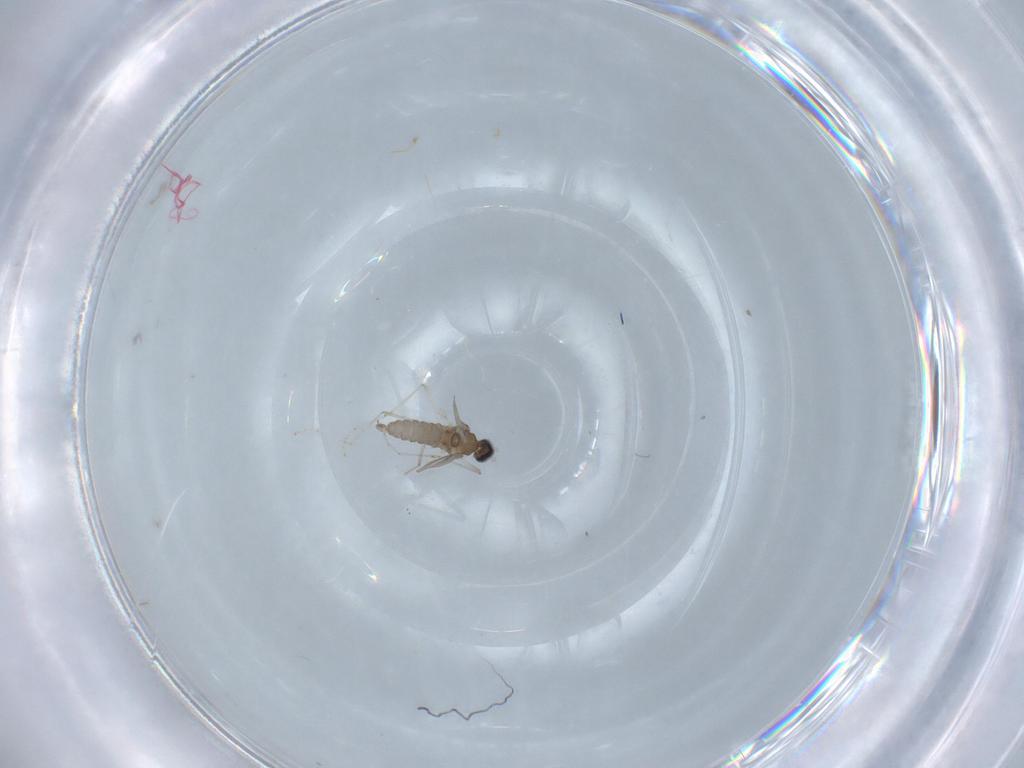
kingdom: Animalia
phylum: Arthropoda
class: Insecta
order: Diptera
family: Cecidomyiidae
